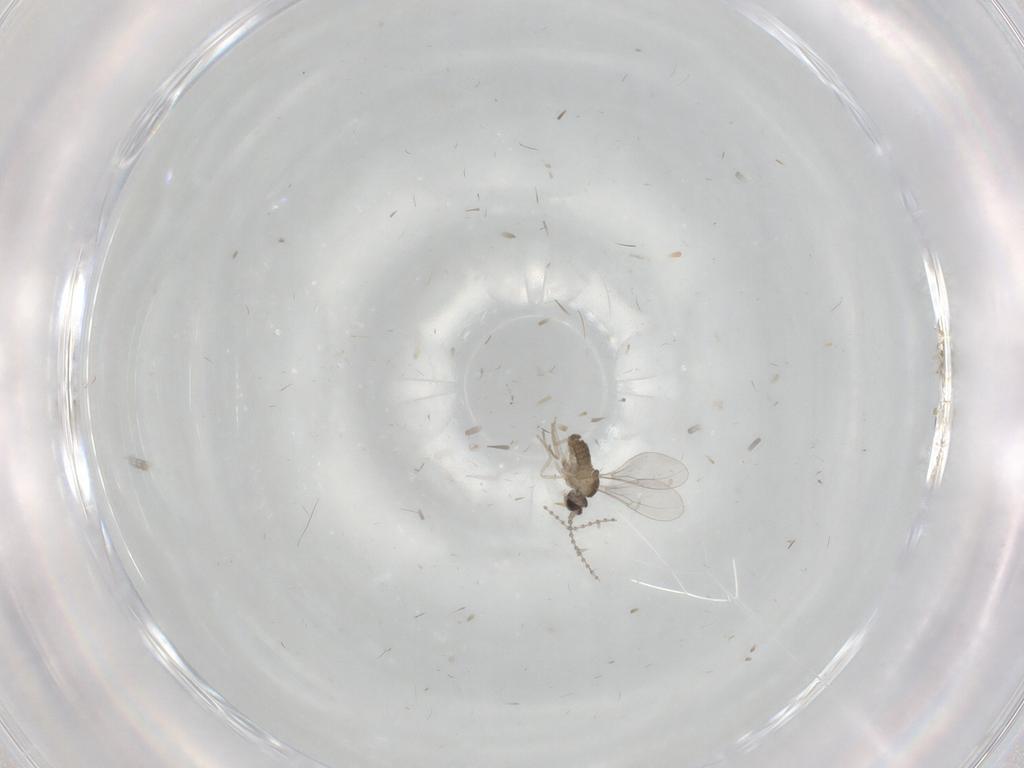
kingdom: Animalia
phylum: Arthropoda
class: Insecta
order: Diptera
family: Cecidomyiidae
